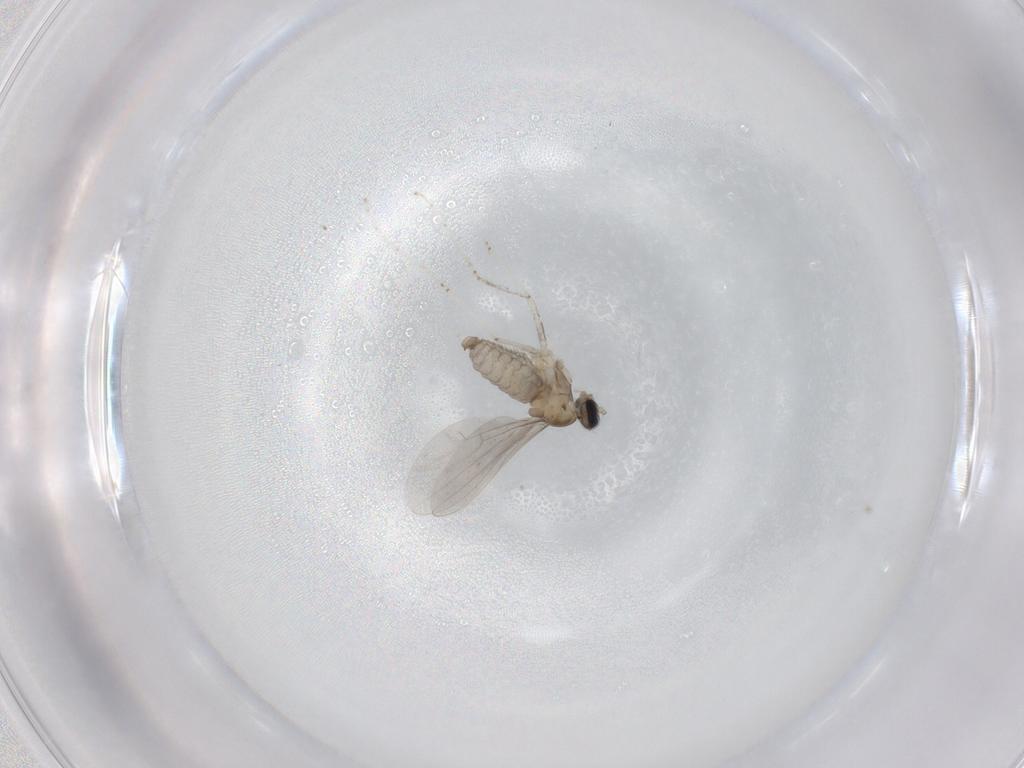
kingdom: Animalia
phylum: Arthropoda
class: Insecta
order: Diptera
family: Cecidomyiidae
